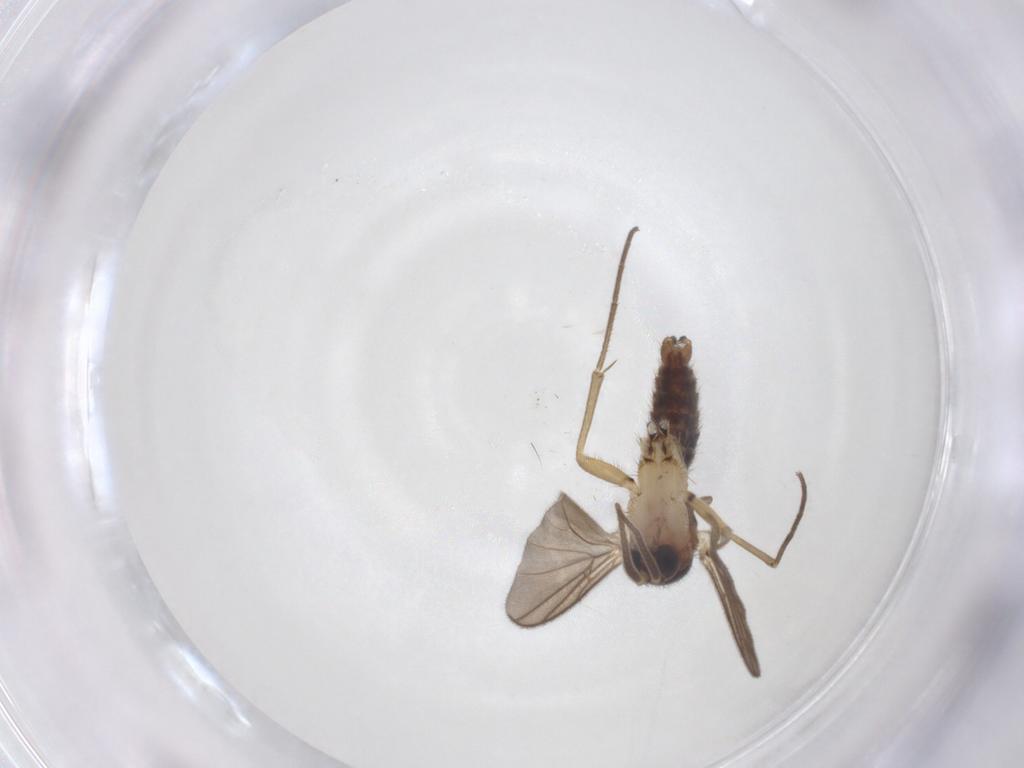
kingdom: Animalia
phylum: Arthropoda
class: Insecta
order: Diptera
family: Mycetophilidae
